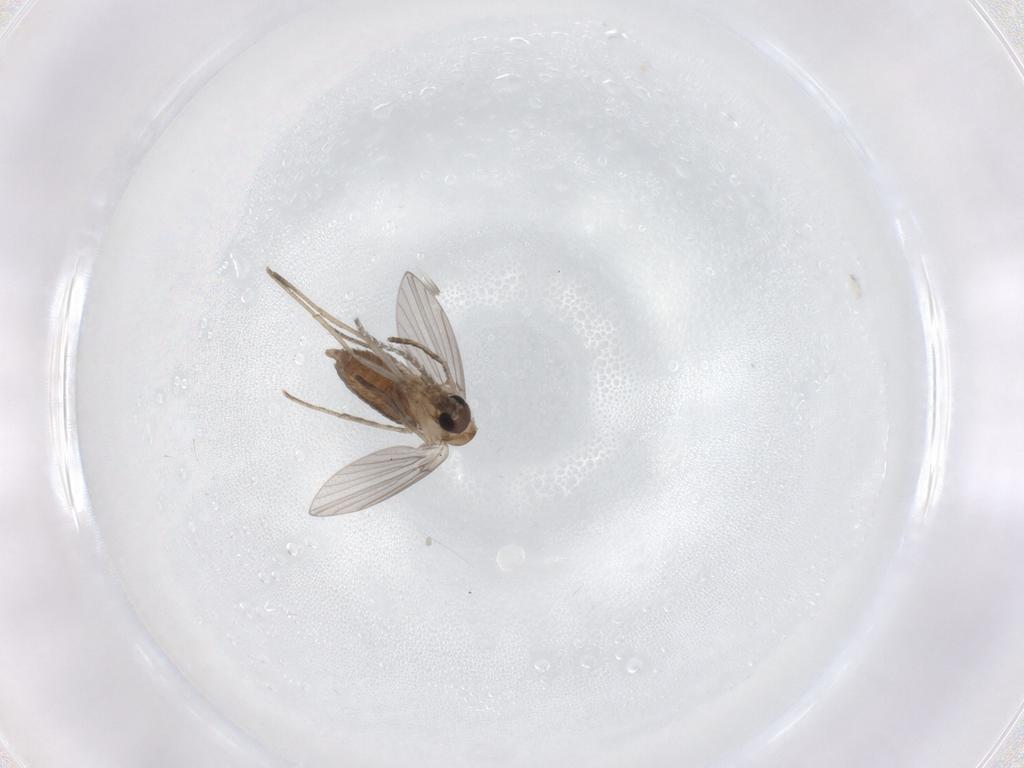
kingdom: Animalia
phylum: Arthropoda
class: Insecta
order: Diptera
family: Cecidomyiidae
